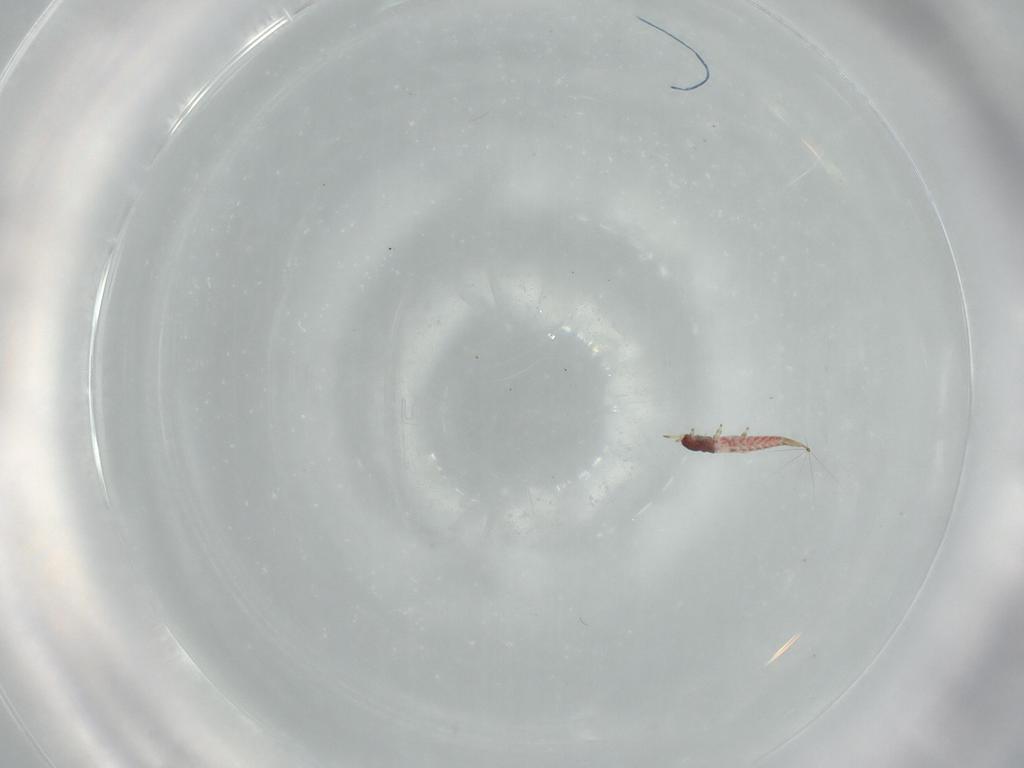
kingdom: Animalia
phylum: Arthropoda
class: Insecta
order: Thysanoptera
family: Phlaeothripidae
